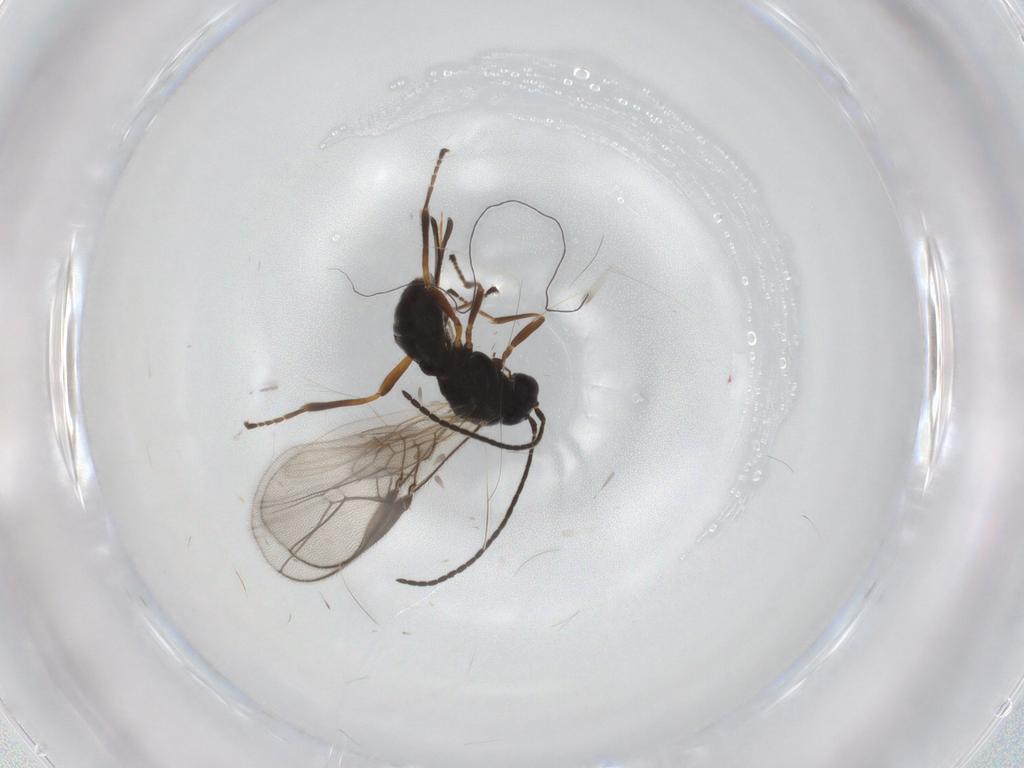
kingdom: Animalia
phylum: Arthropoda
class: Insecta
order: Hymenoptera
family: Braconidae
